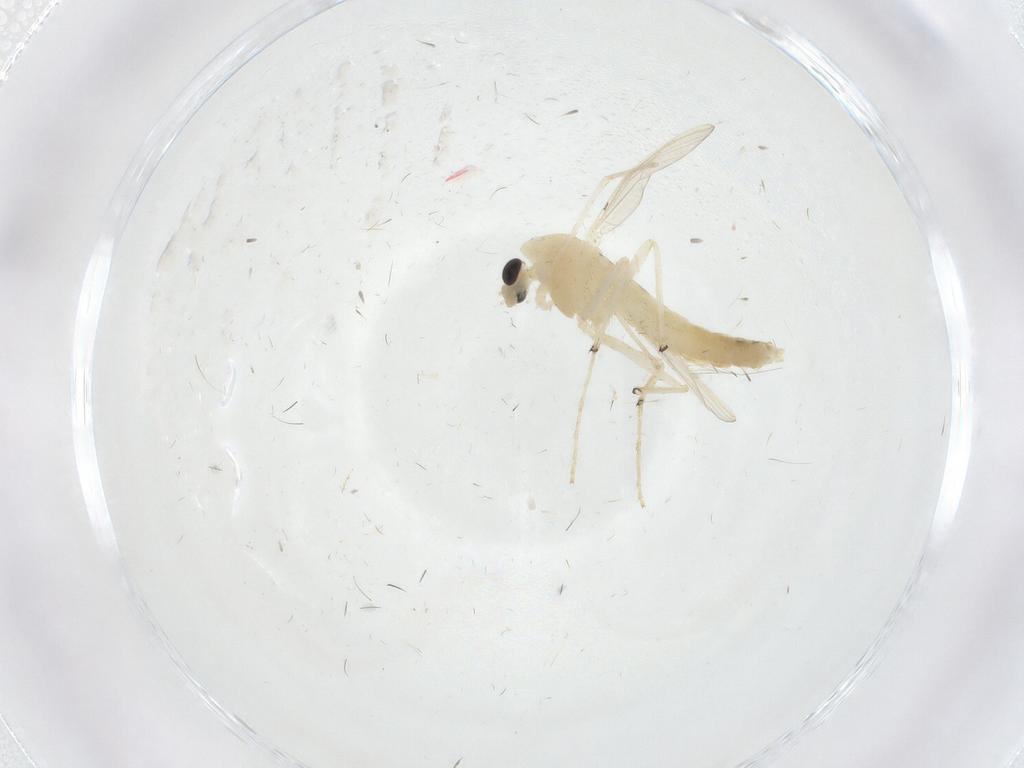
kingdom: Animalia
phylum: Arthropoda
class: Insecta
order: Diptera
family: Chironomidae
